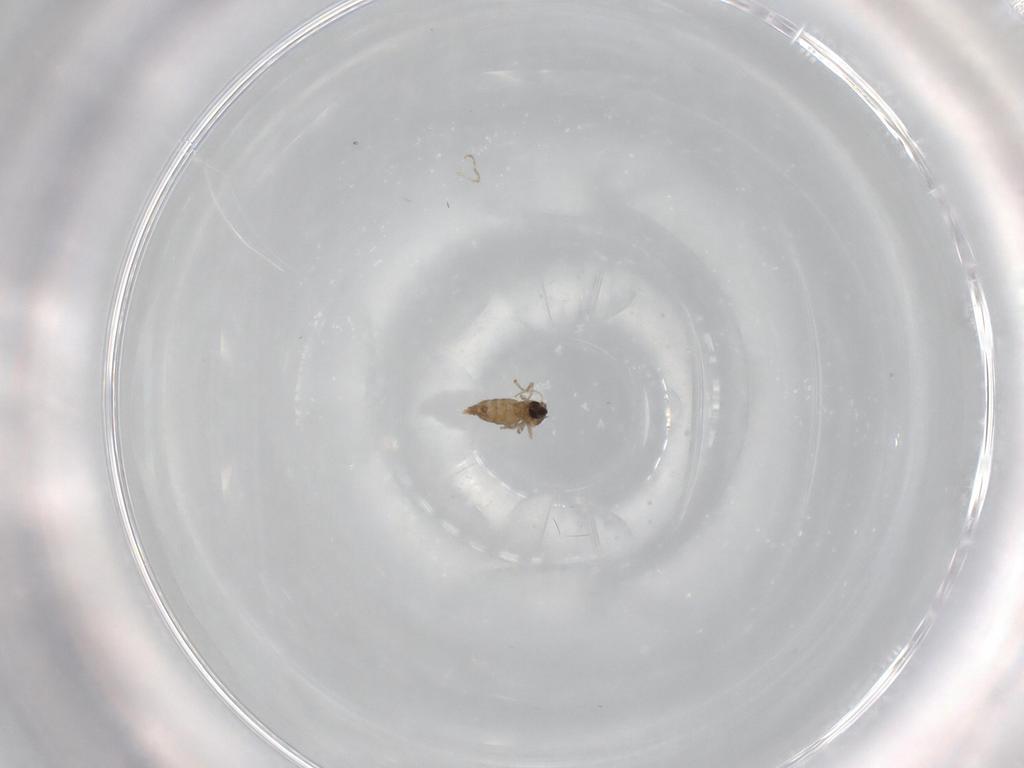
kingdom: Animalia
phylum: Arthropoda
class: Insecta
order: Diptera
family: Cecidomyiidae
